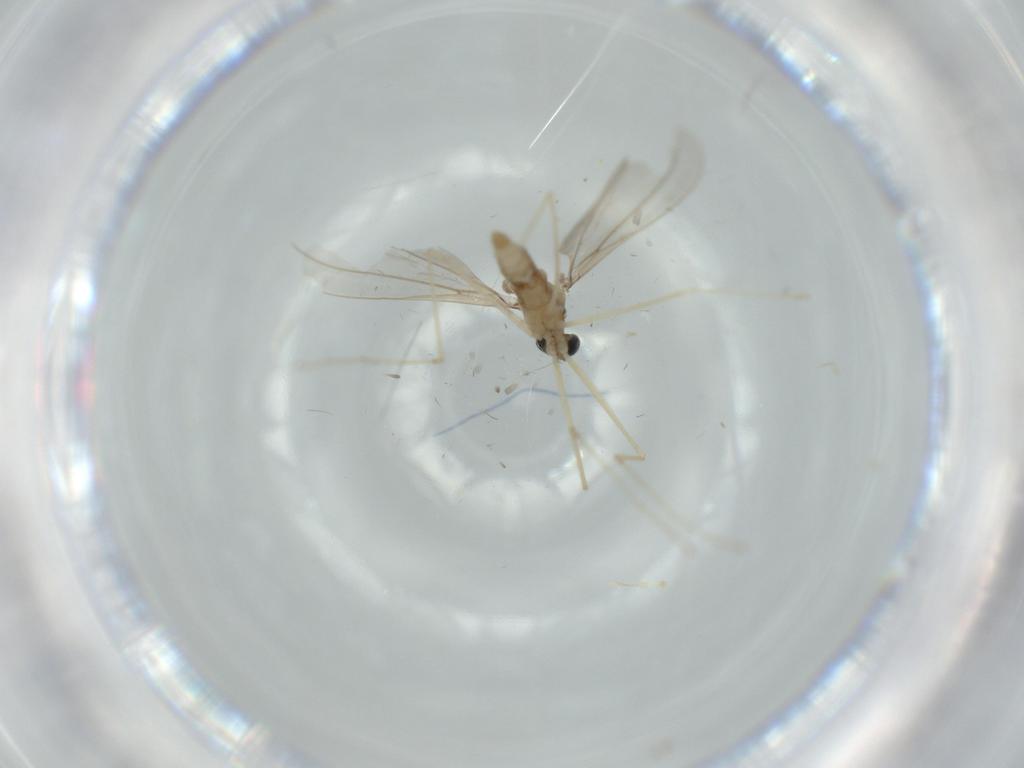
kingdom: Animalia
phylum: Arthropoda
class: Insecta
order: Diptera
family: Cecidomyiidae
